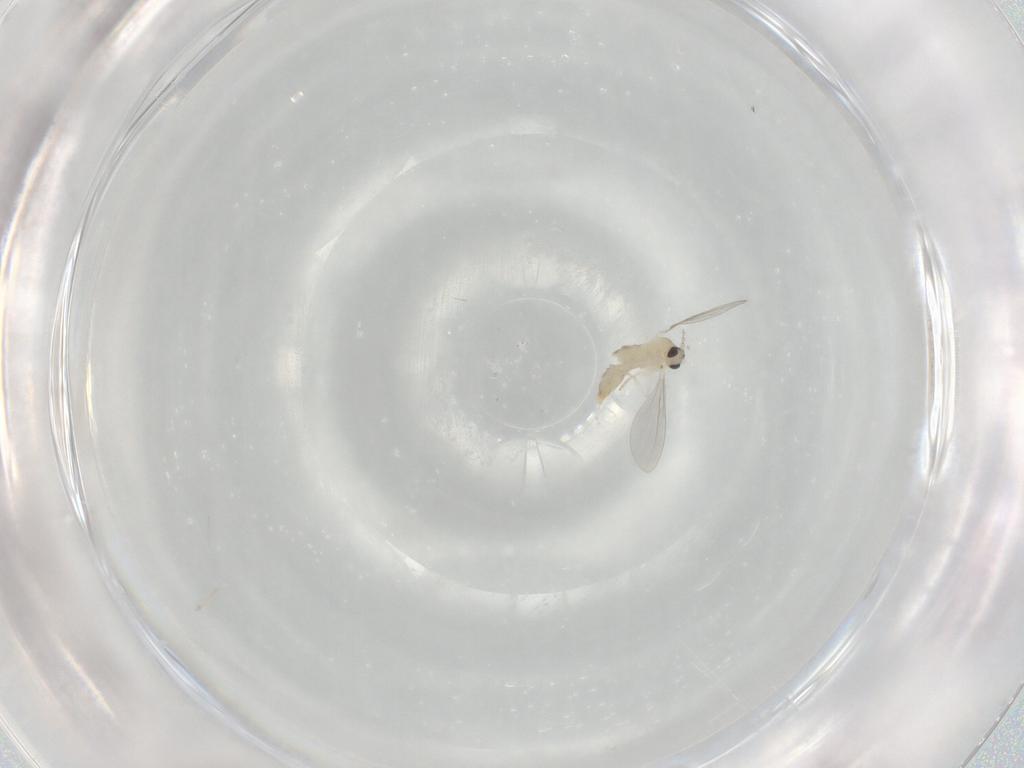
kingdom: Animalia
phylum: Arthropoda
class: Insecta
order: Diptera
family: Cecidomyiidae
